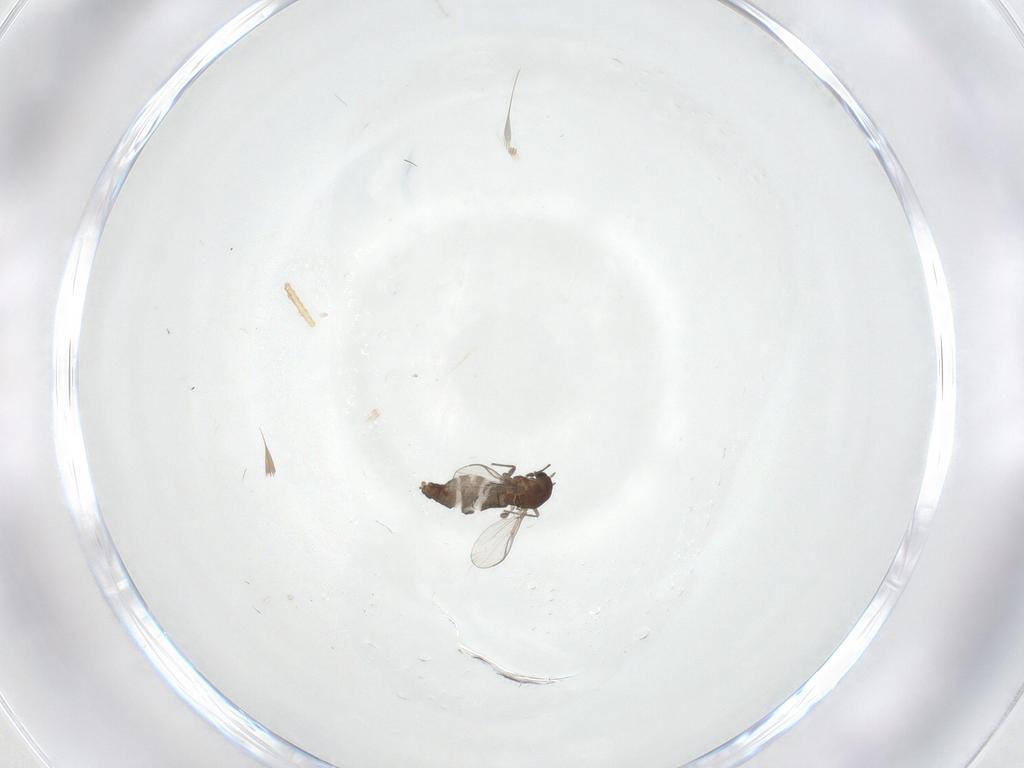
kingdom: Animalia
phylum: Arthropoda
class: Insecta
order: Diptera
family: Chironomidae
